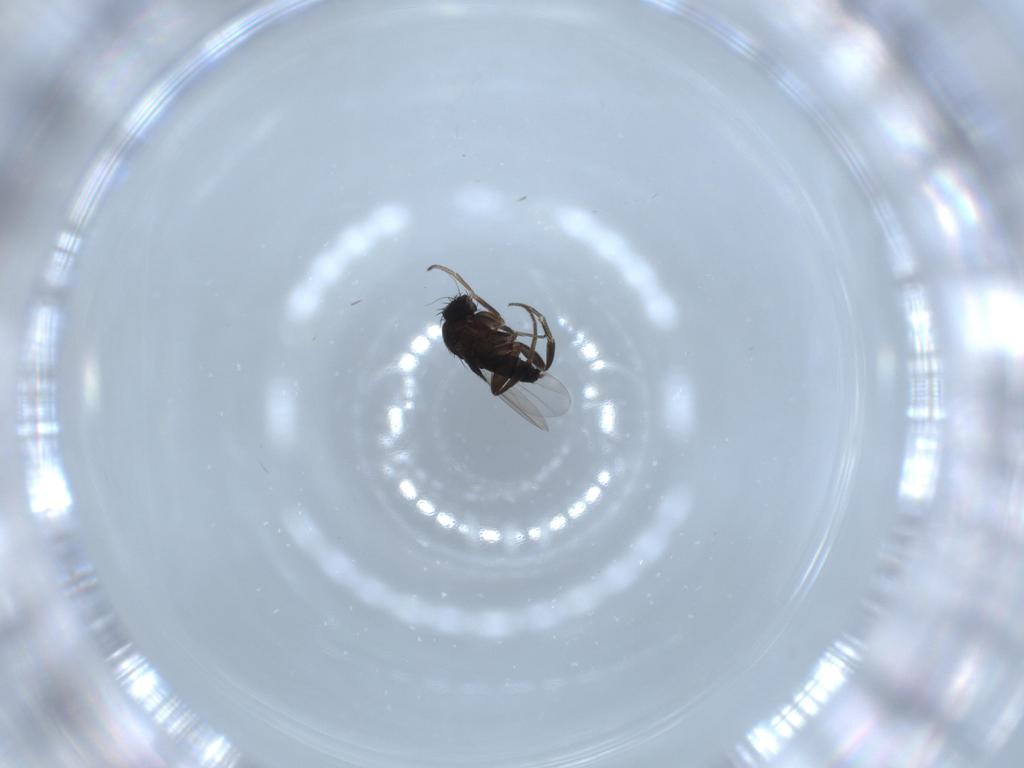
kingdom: Animalia
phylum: Arthropoda
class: Insecta
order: Diptera
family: Phoridae
